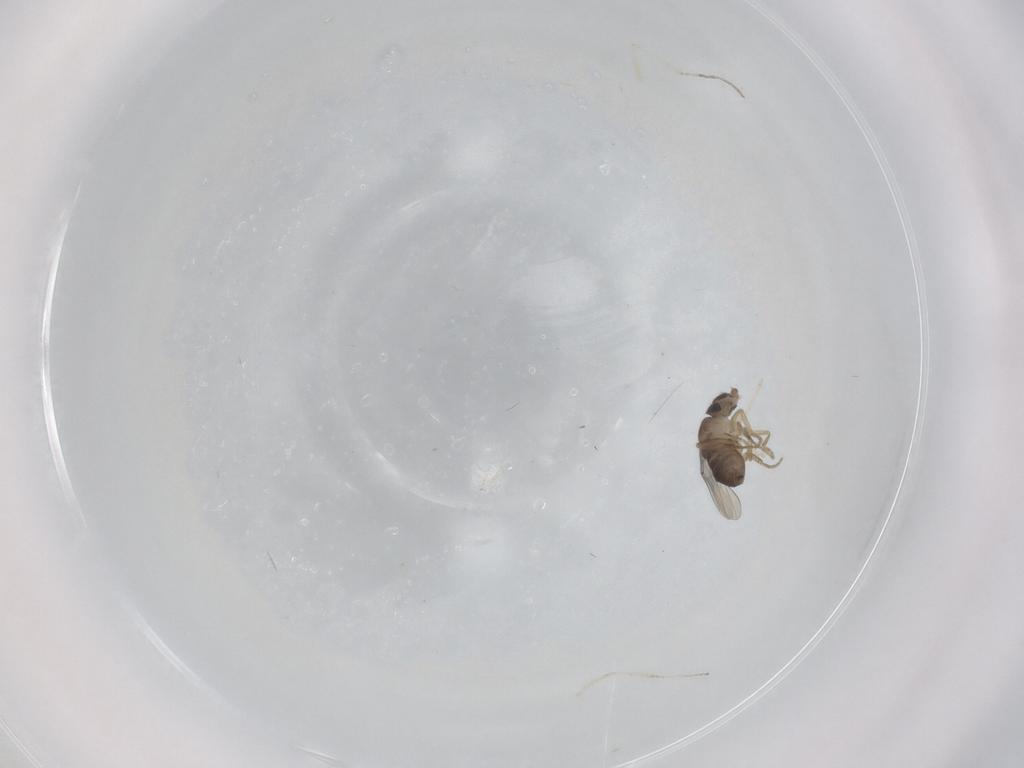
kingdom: Animalia
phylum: Arthropoda
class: Insecta
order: Diptera
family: Phoridae
